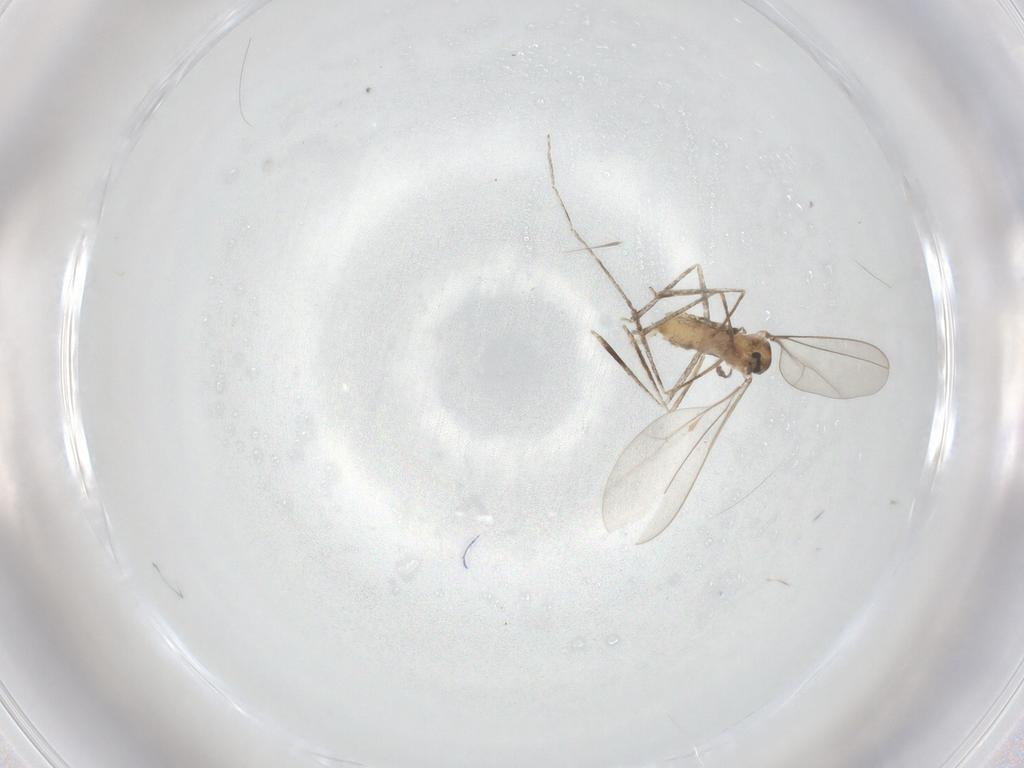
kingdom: Animalia
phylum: Arthropoda
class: Insecta
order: Diptera
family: Cecidomyiidae
